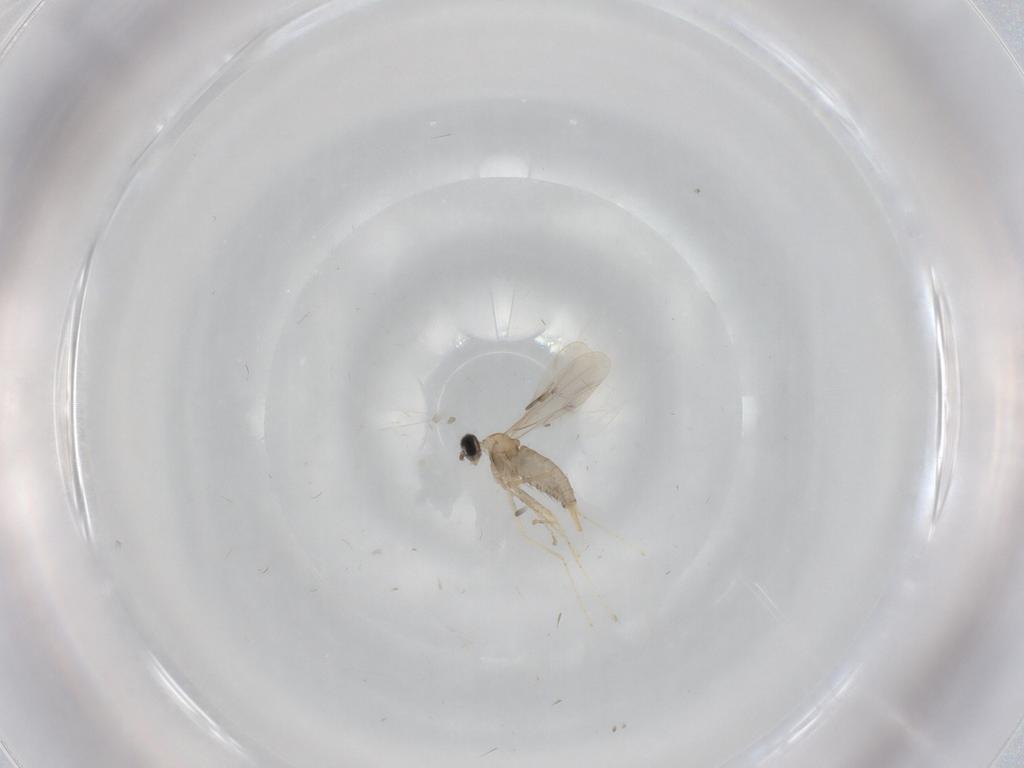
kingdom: Animalia
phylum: Arthropoda
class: Insecta
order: Diptera
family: Cecidomyiidae
